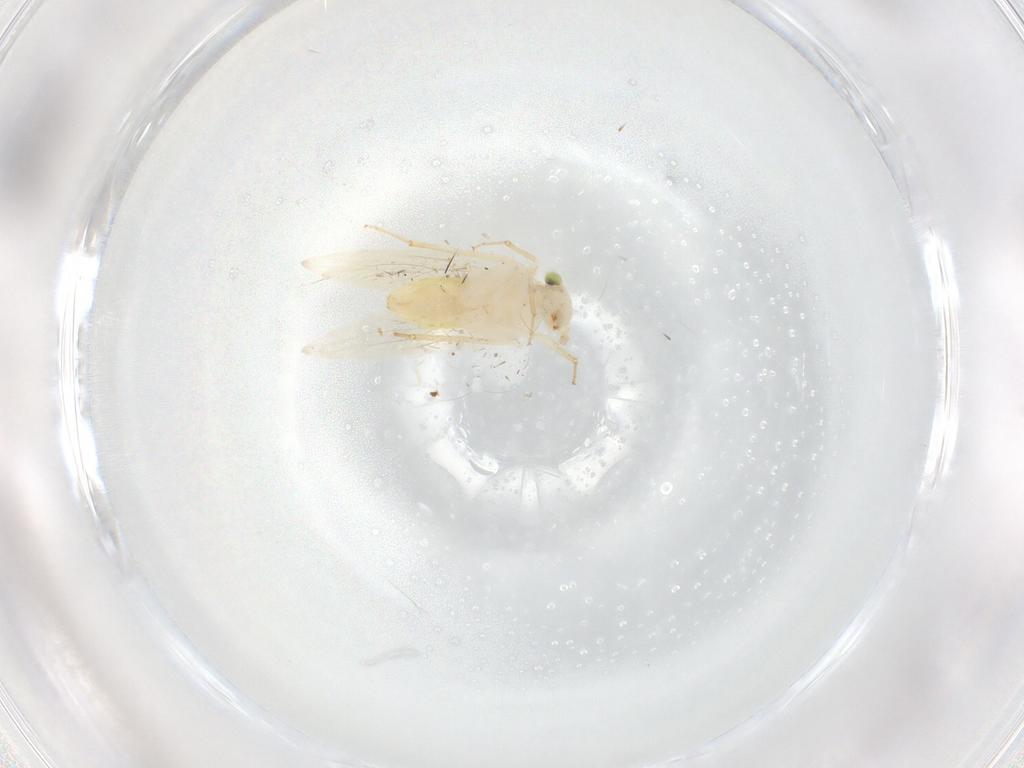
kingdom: Animalia
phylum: Arthropoda
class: Insecta
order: Psocodea
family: Lepidopsocidae
